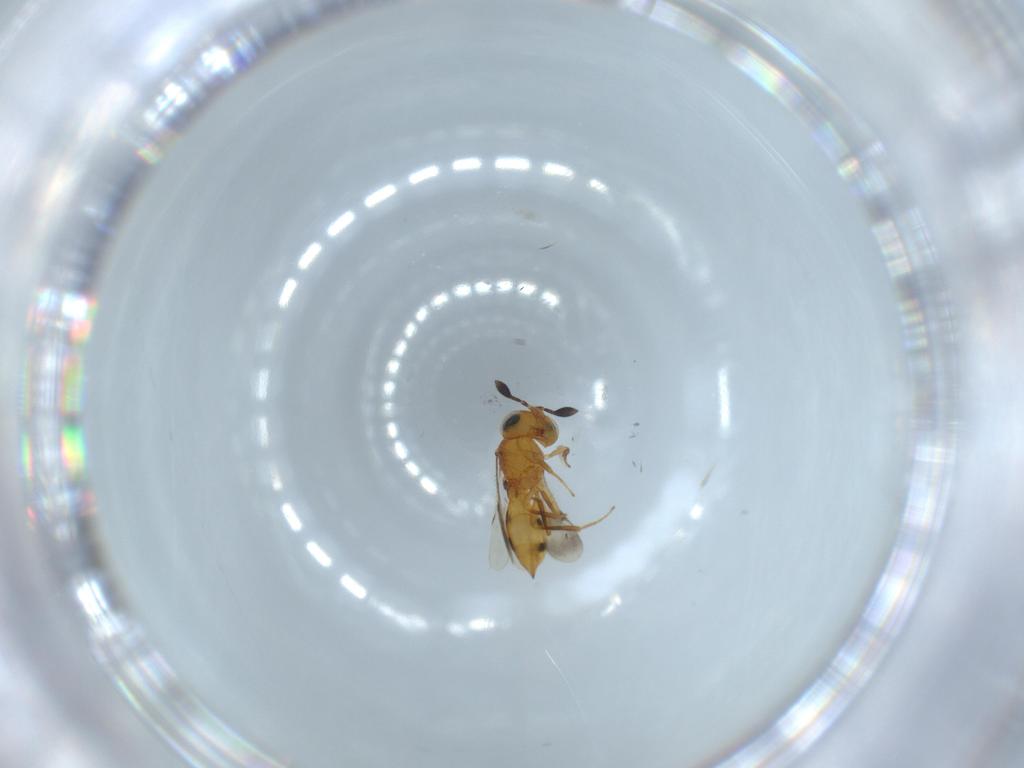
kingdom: Animalia
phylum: Arthropoda
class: Insecta
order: Hymenoptera
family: Scelionidae
